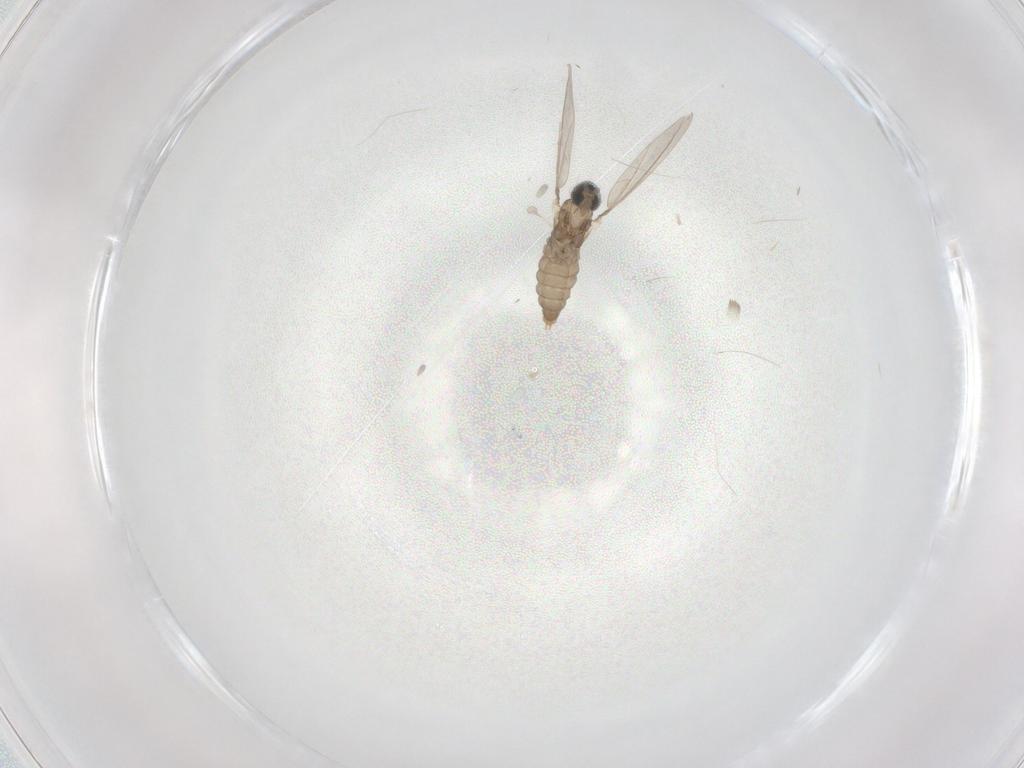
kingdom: Animalia
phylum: Arthropoda
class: Insecta
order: Diptera
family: Cecidomyiidae
